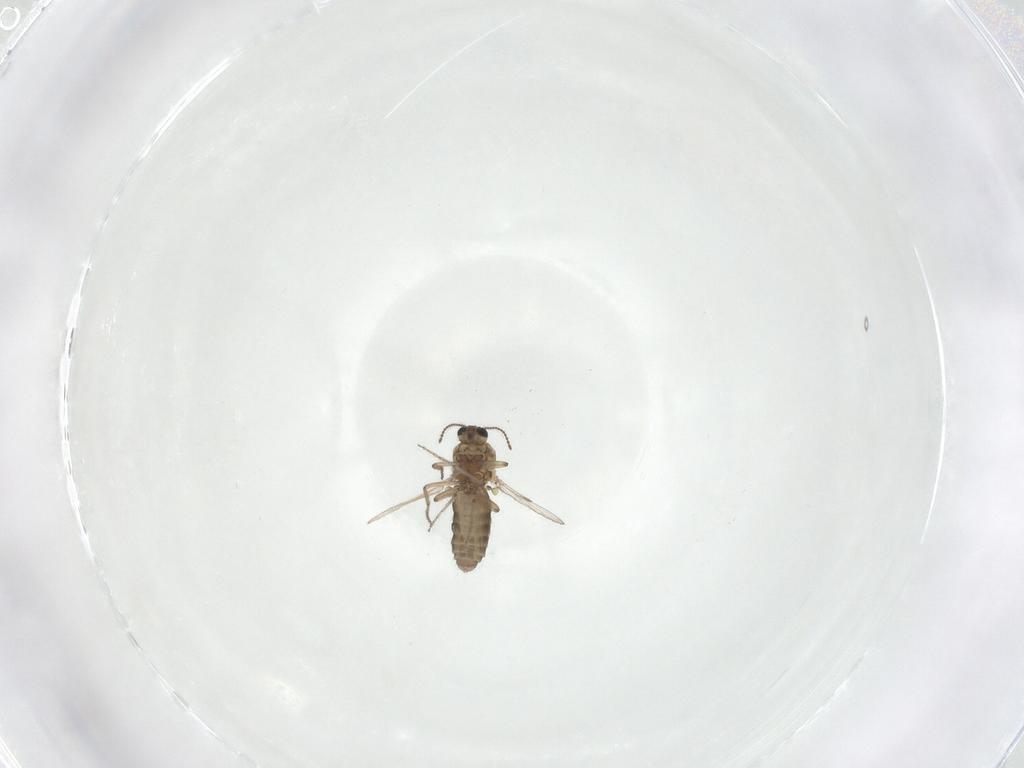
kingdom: Animalia
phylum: Arthropoda
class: Insecta
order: Diptera
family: Ceratopogonidae
